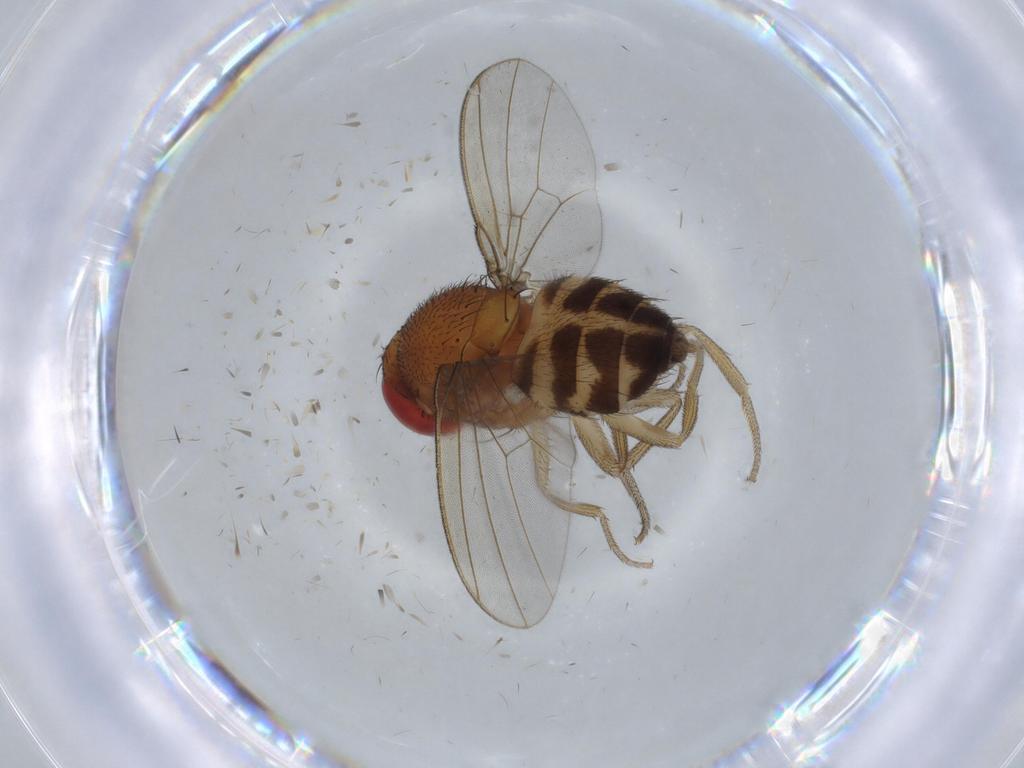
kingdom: Animalia
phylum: Arthropoda
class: Insecta
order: Diptera
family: Drosophilidae
